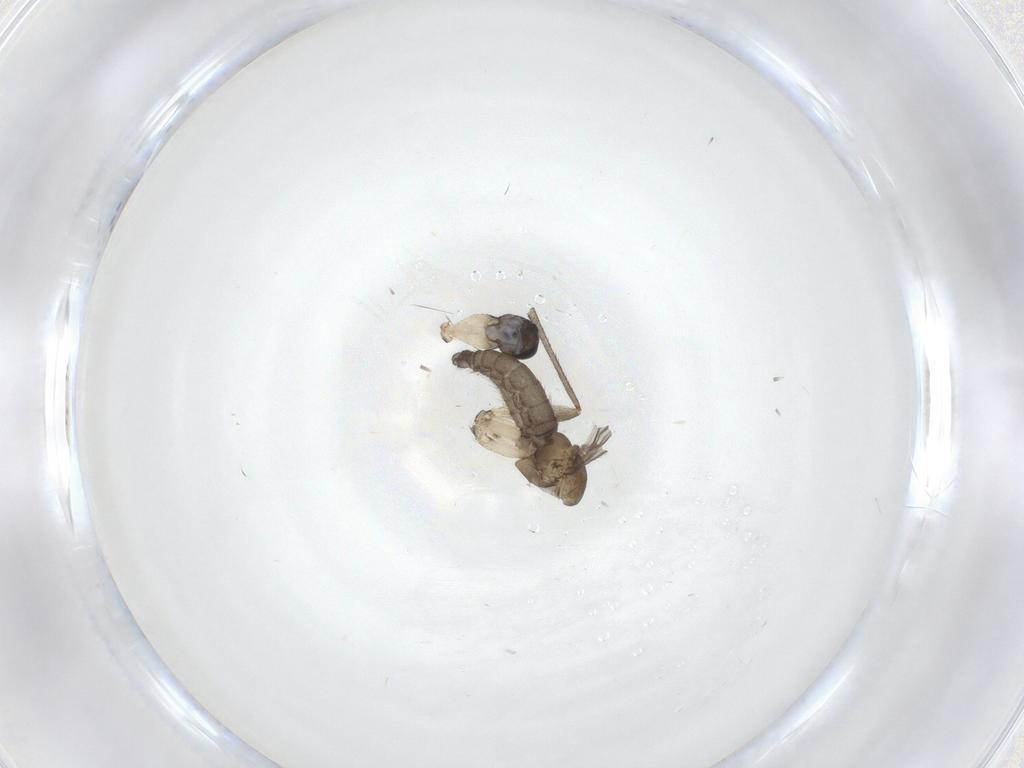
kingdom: Animalia
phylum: Arthropoda
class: Insecta
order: Diptera
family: Sciaridae
